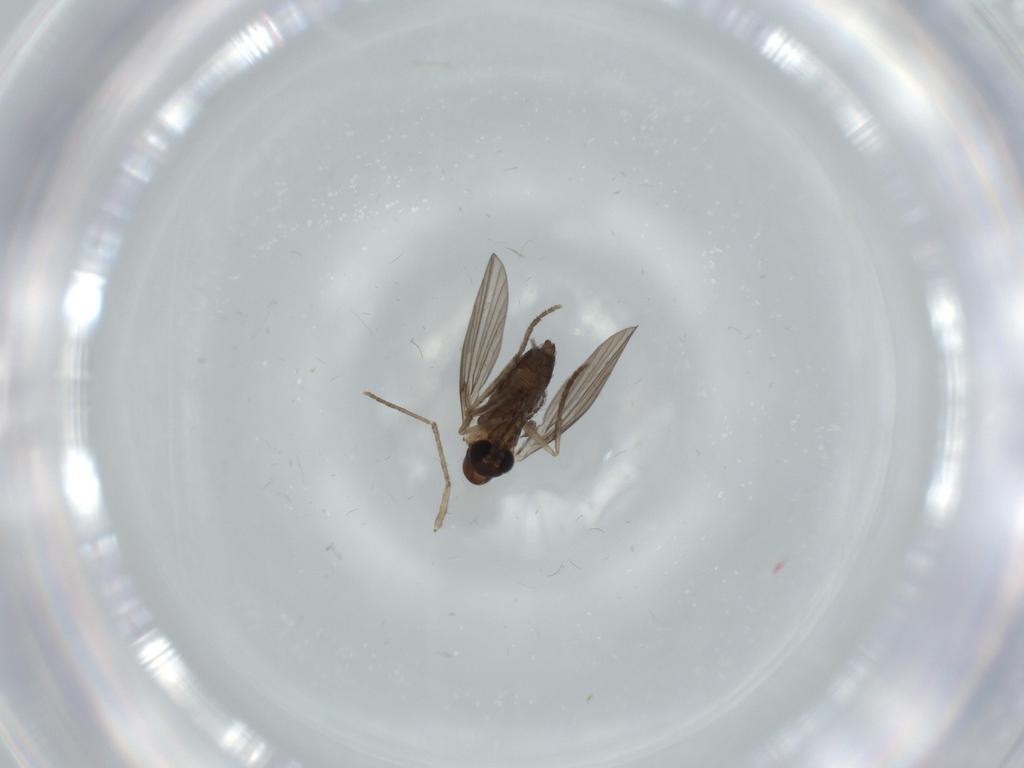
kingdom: Animalia
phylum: Arthropoda
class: Insecta
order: Diptera
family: Psychodidae
